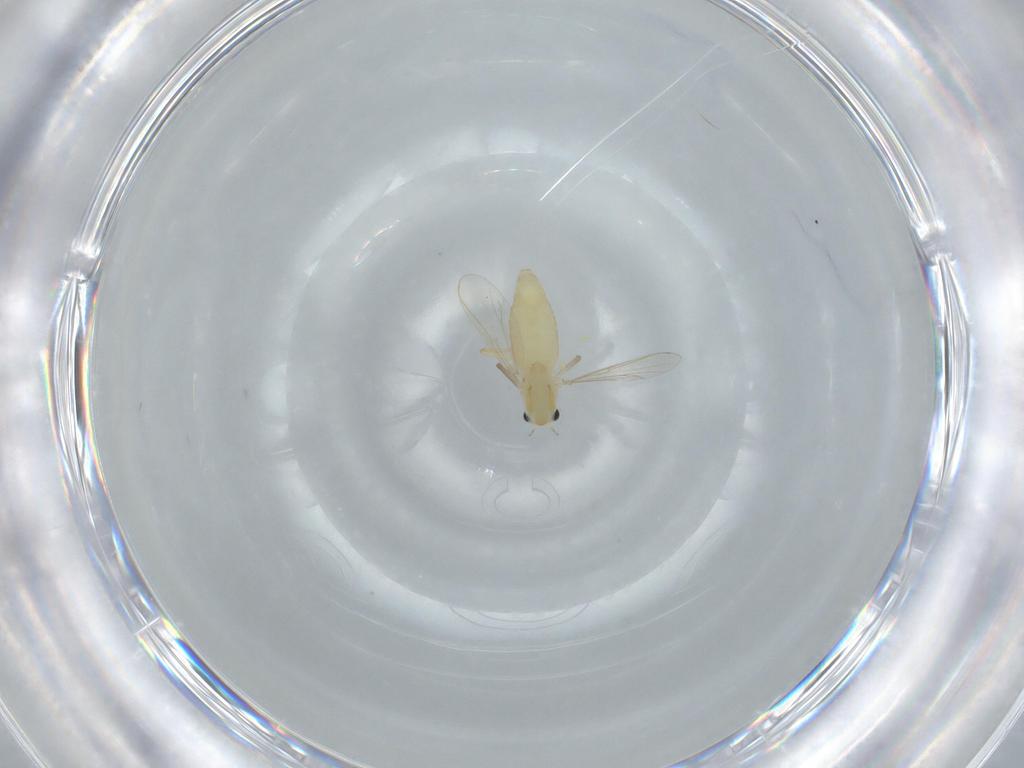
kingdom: Animalia
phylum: Arthropoda
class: Insecta
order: Diptera
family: Chironomidae
